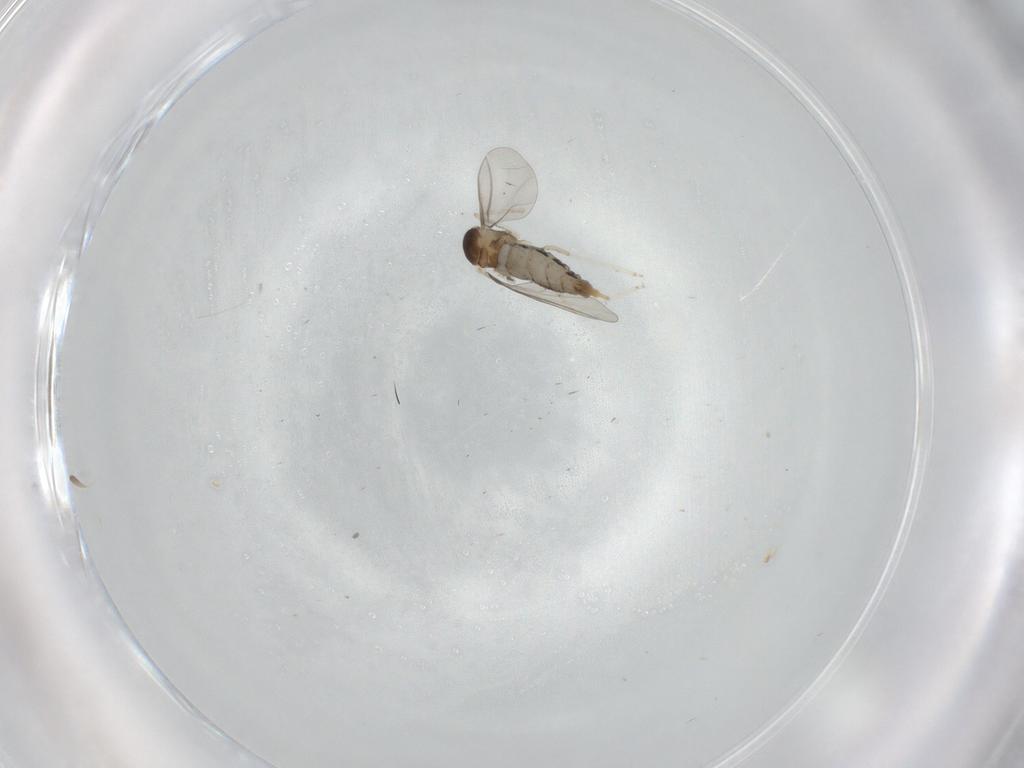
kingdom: Animalia
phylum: Arthropoda
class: Insecta
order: Diptera
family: Cecidomyiidae
